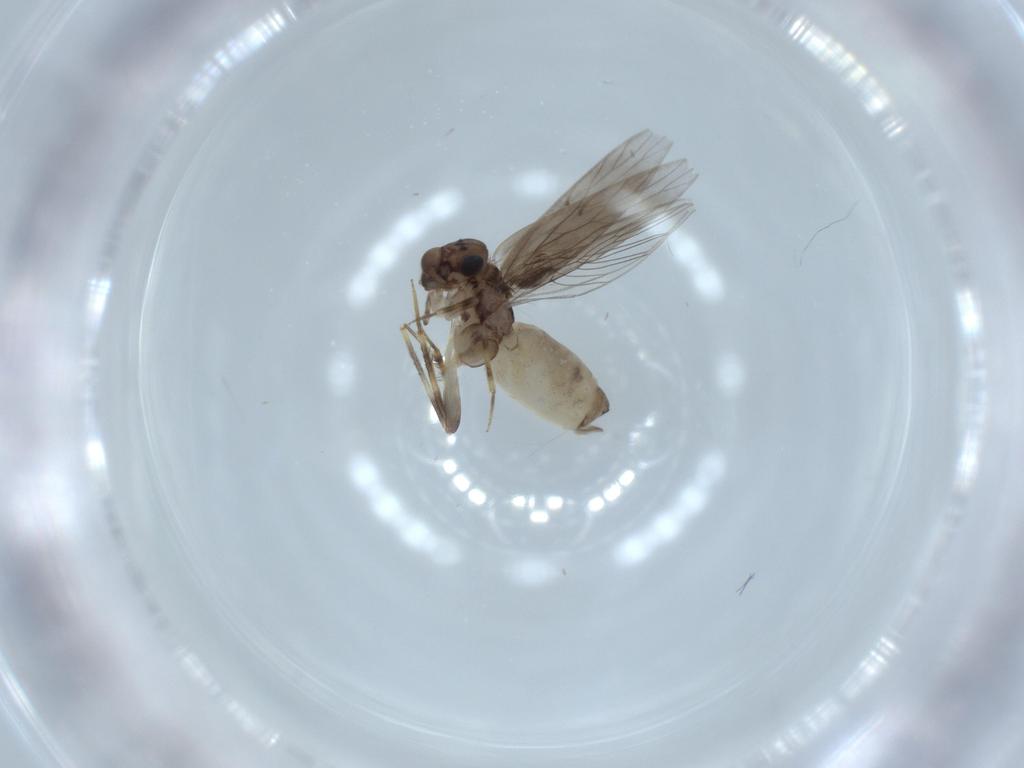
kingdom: Animalia
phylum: Arthropoda
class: Insecta
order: Psocodea
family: Lepidopsocidae
